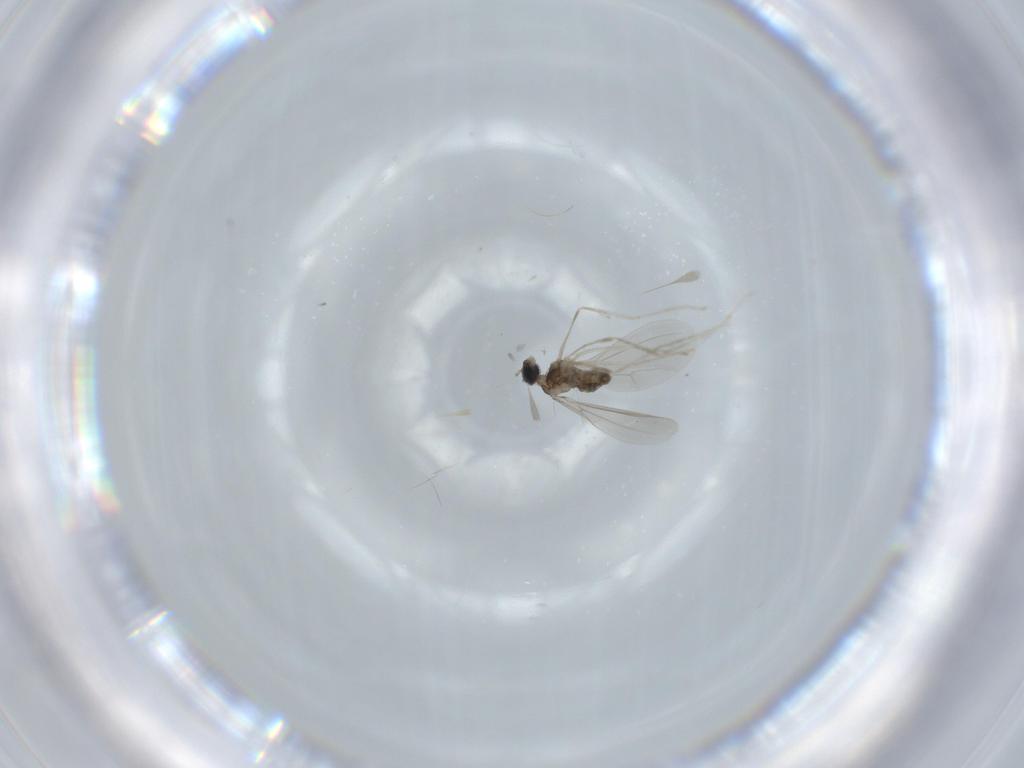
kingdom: Animalia
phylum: Arthropoda
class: Insecta
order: Diptera
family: Cecidomyiidae
